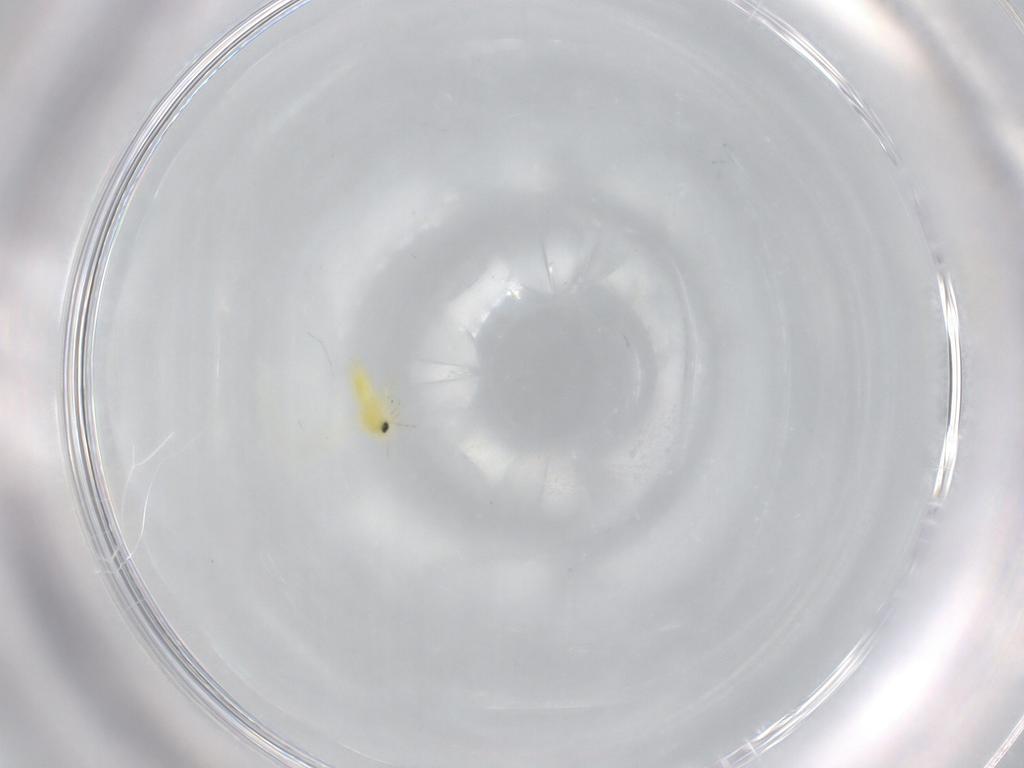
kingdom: Animalia
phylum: Arthropoda
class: Insecta
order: Hemiptera
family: Aleyrodidae
